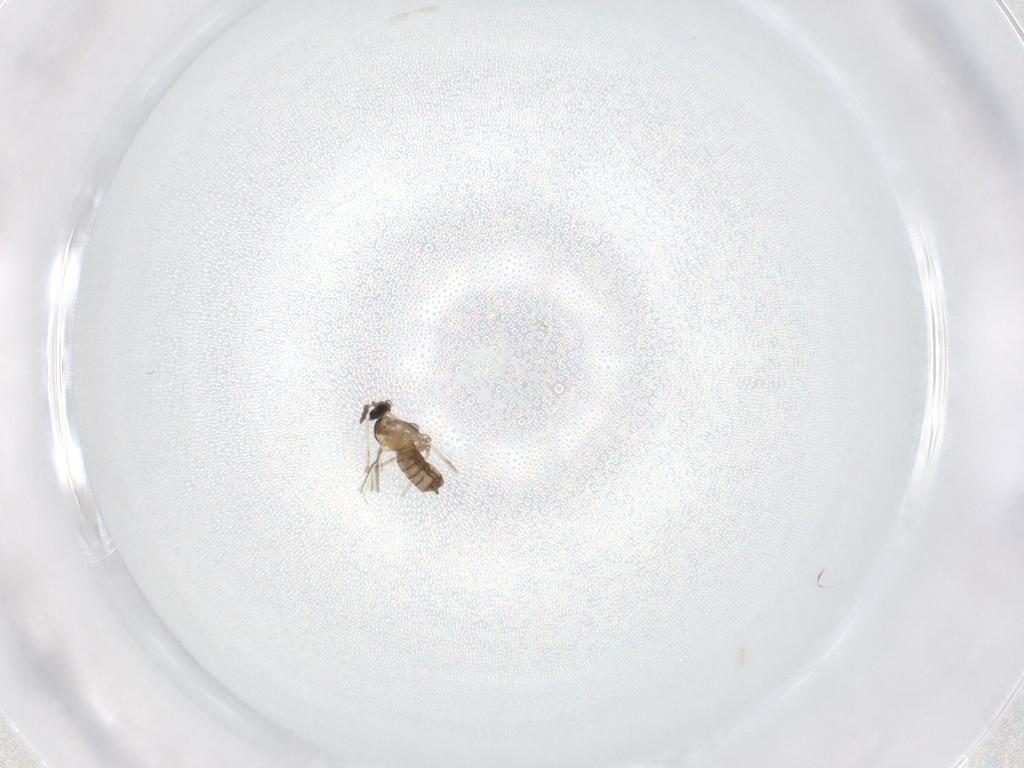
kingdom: Animalia
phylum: Arthropoda
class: Insecta
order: Diptera
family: Cecidomyiidae
